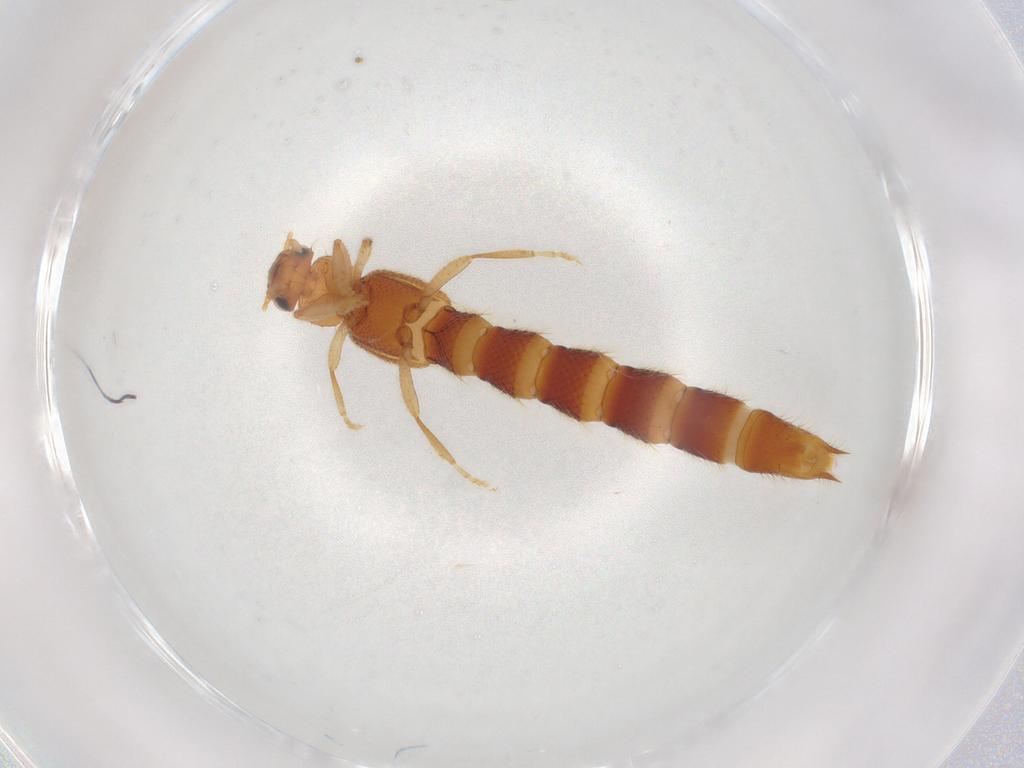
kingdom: Animalia
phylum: Arthropoda
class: Insecta
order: Coleoptera
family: Staphylinidae
